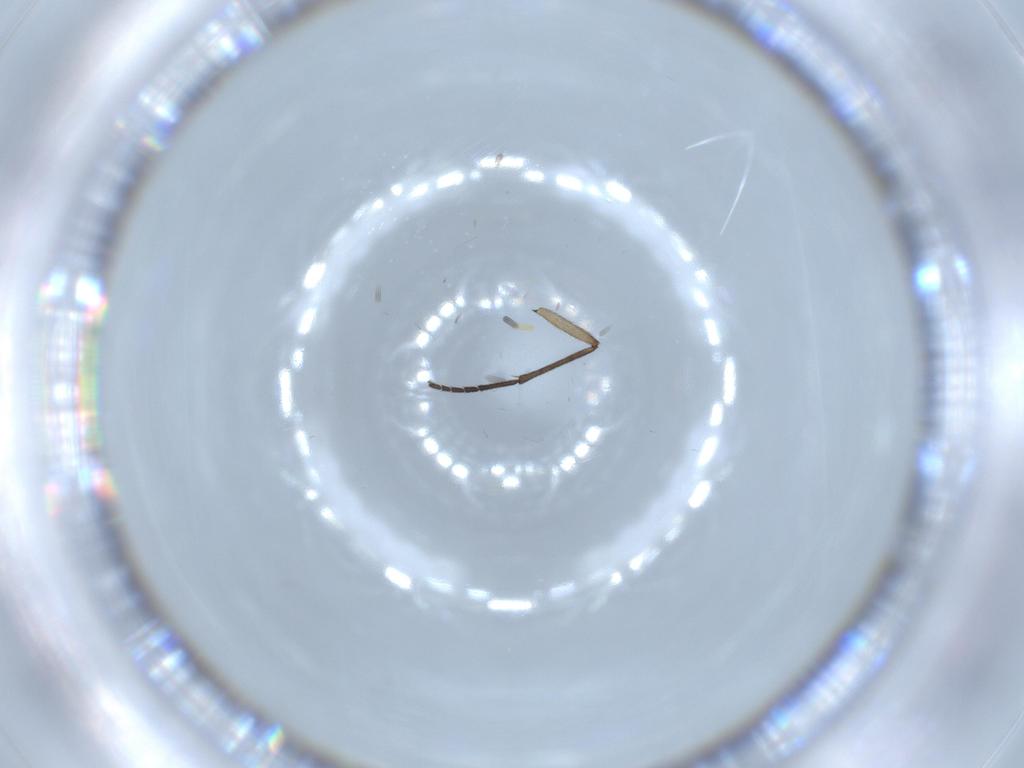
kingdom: Animalia
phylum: Arthropoda
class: Insecta
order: Diptera
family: Sciaridae
